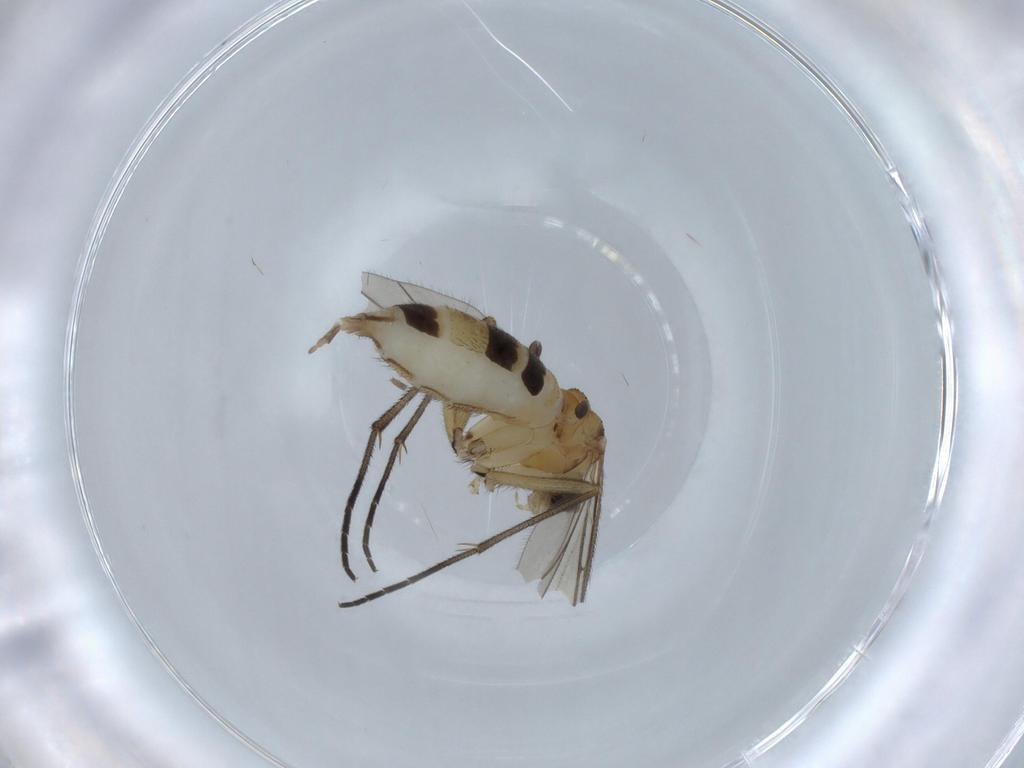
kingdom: Animalia
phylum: Arthropoda
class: Insecta
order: Diptera
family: Sciaridae
